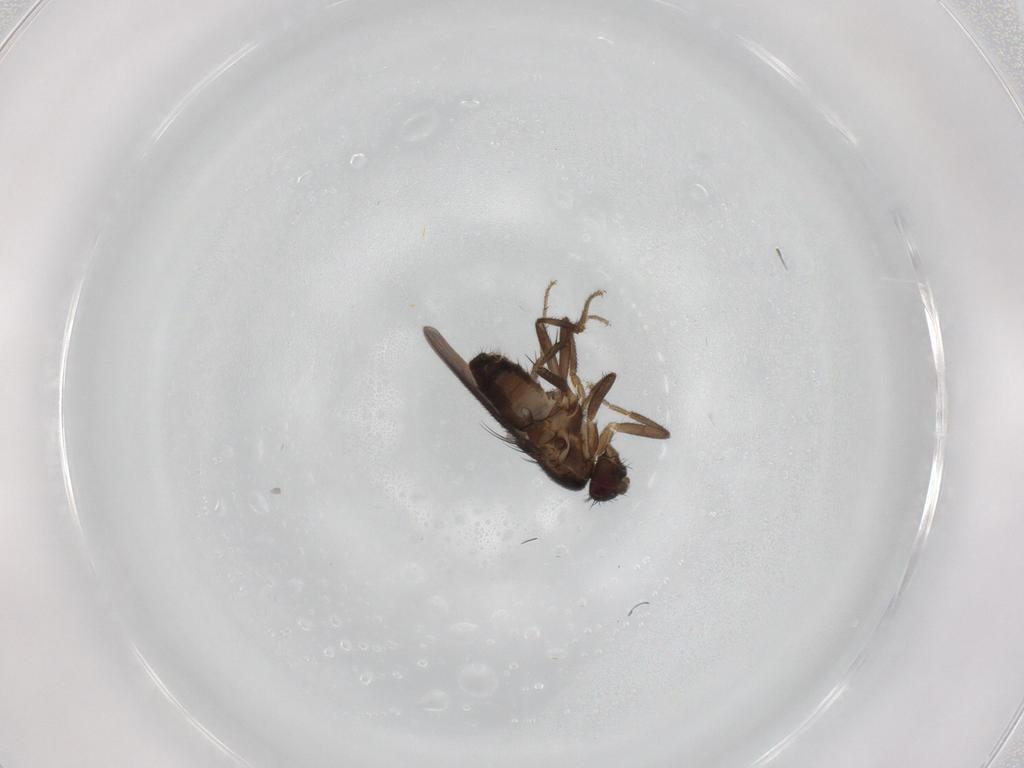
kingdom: Animalia
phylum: Arthropoda
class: Insecta
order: Diptera
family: Sphaeroceridae
